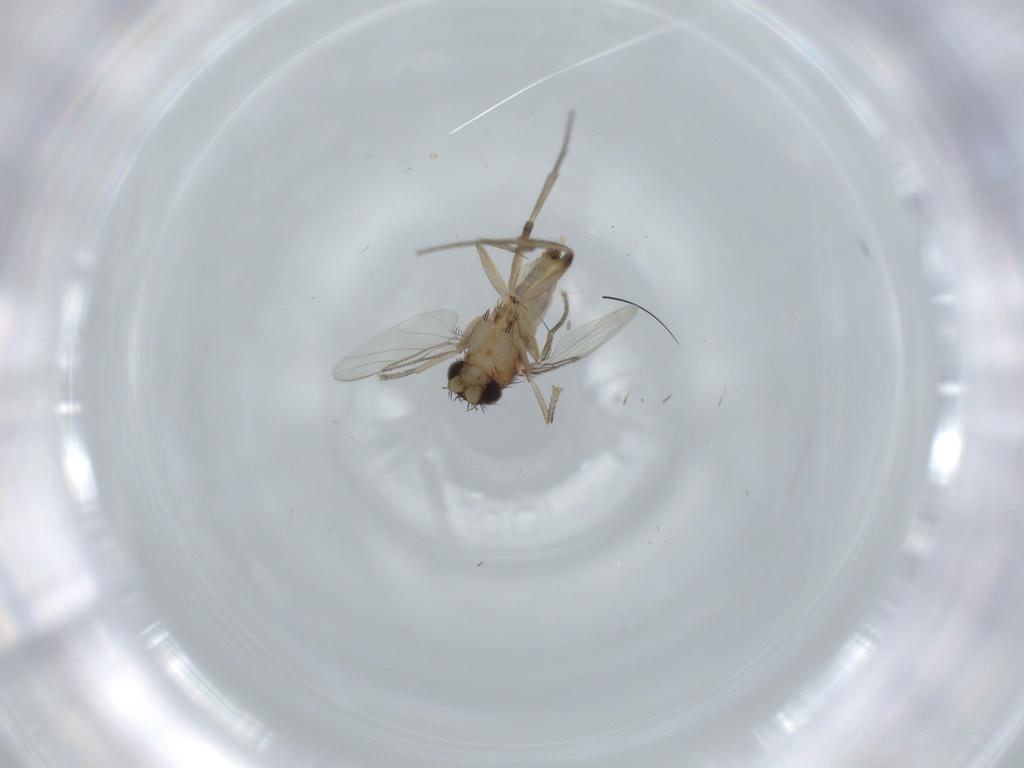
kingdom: Animalia
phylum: Arthropoda
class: Insecta
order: Diptera
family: Phoridae
